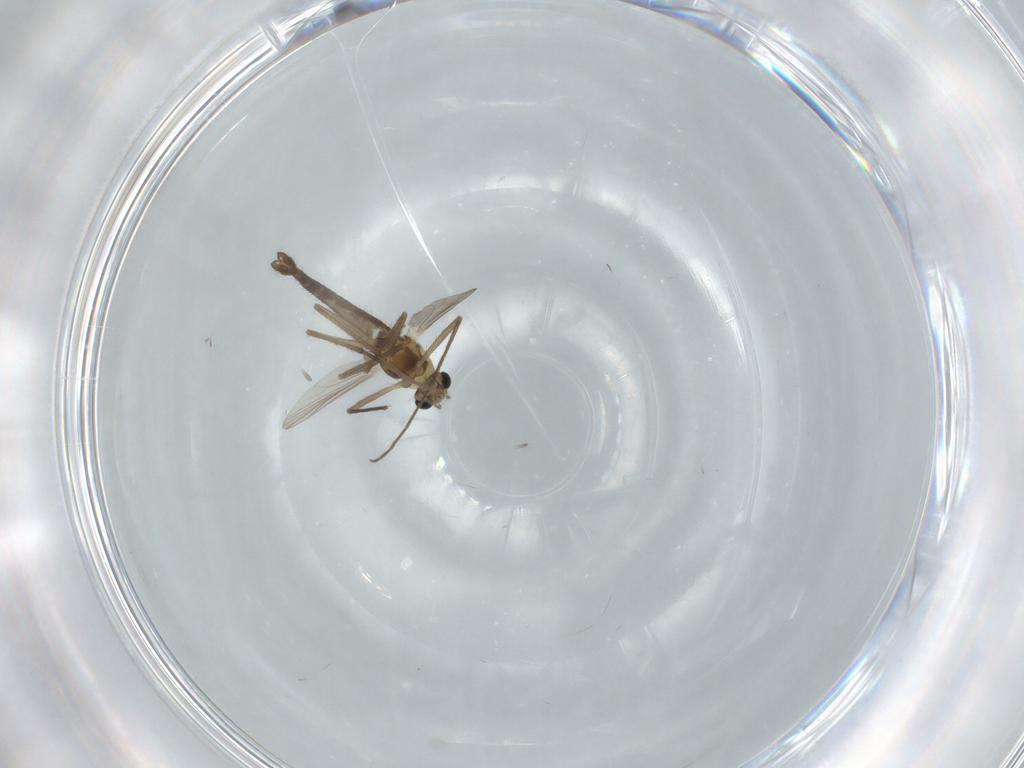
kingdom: Animalia
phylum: Arthropoda
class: Insecta
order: Diptera
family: Chironomidae
